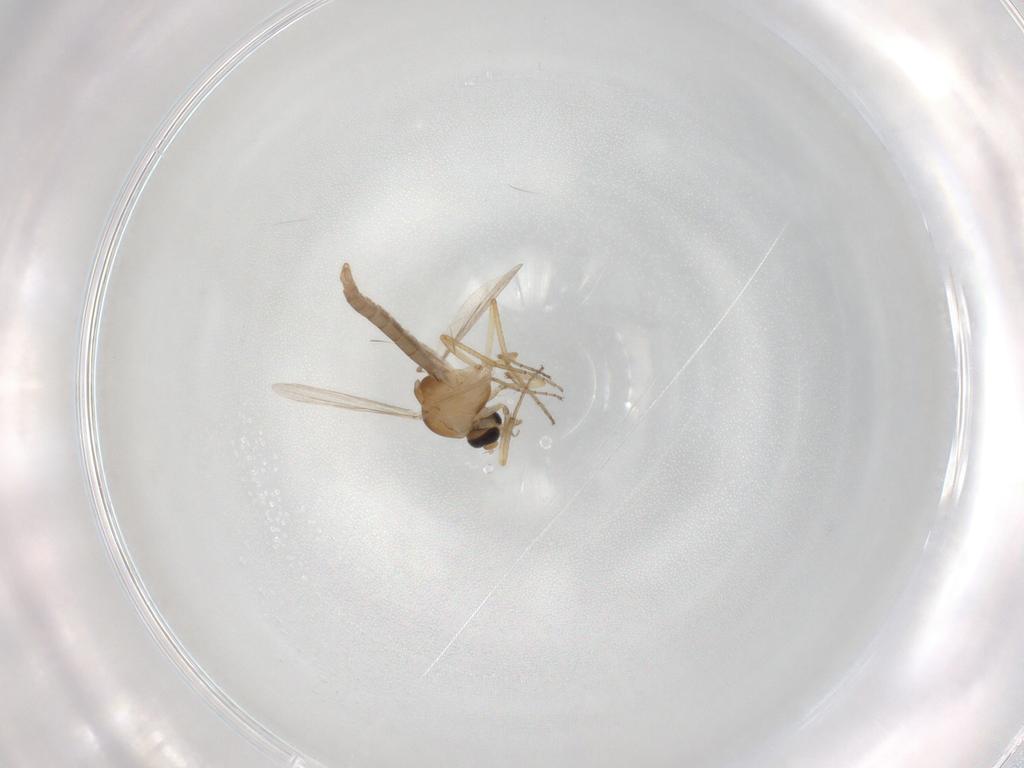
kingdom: Animalia
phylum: Arthropoda
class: Insecta
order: Diptera
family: Ceratopogonidae
